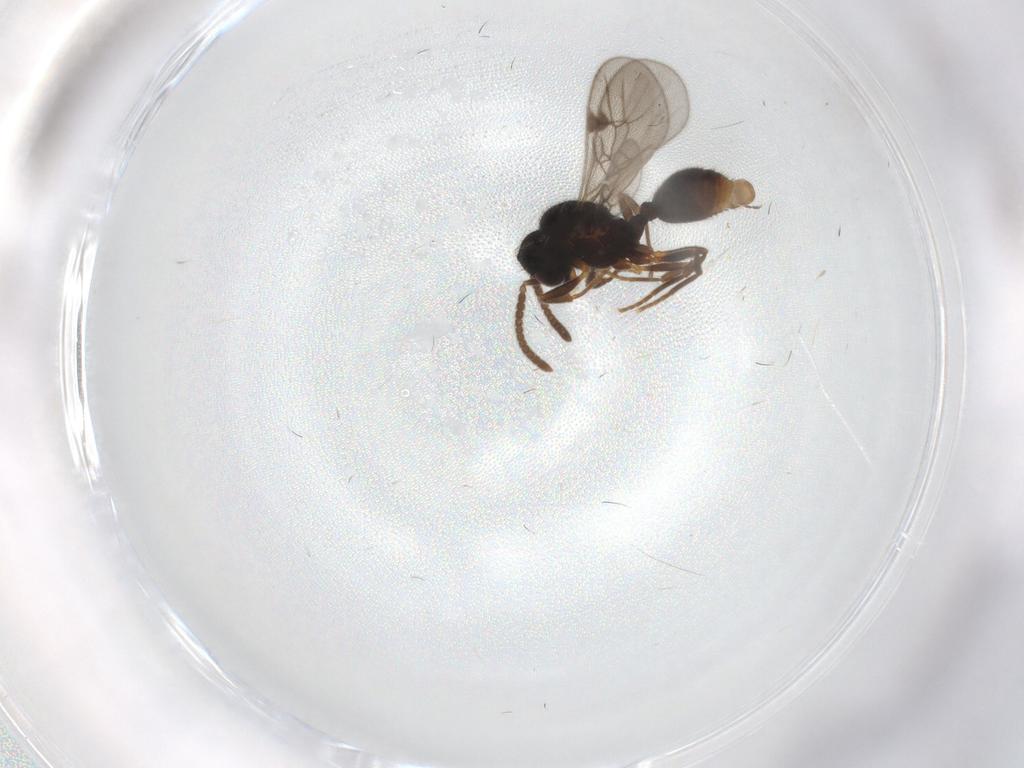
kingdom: Animalia
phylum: Arthropoda
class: Insecta
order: Hymenoptera
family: Formicidae
